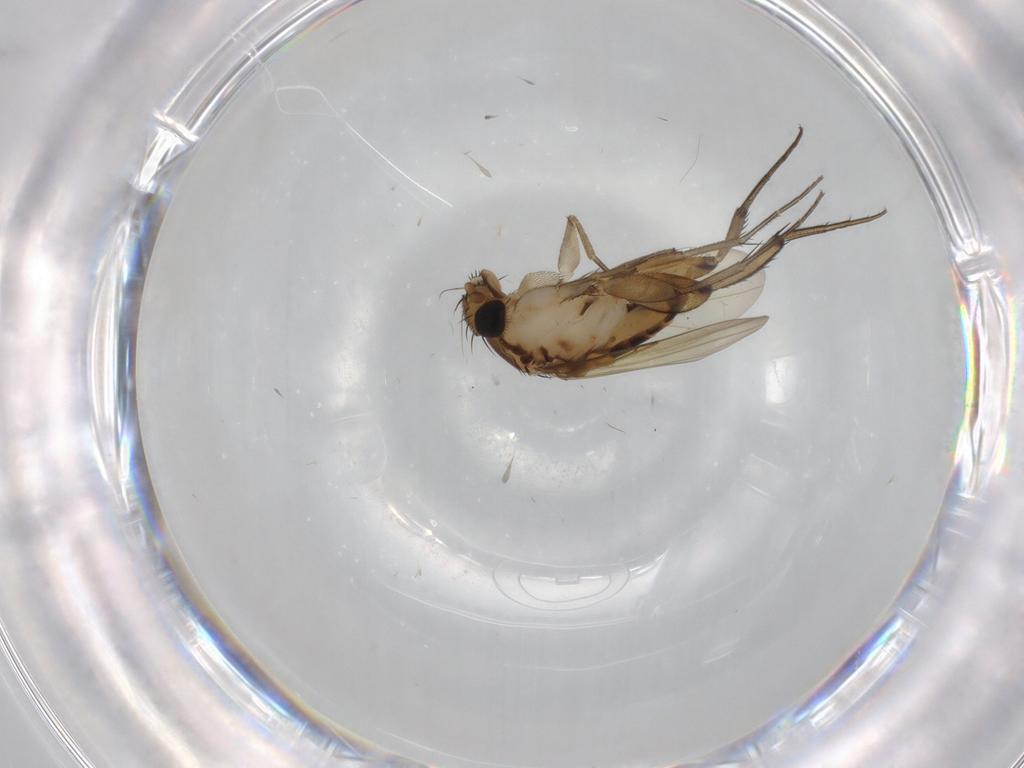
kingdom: Animalia
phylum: Arthropoda
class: Insecta
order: Diptera
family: Phoridae
